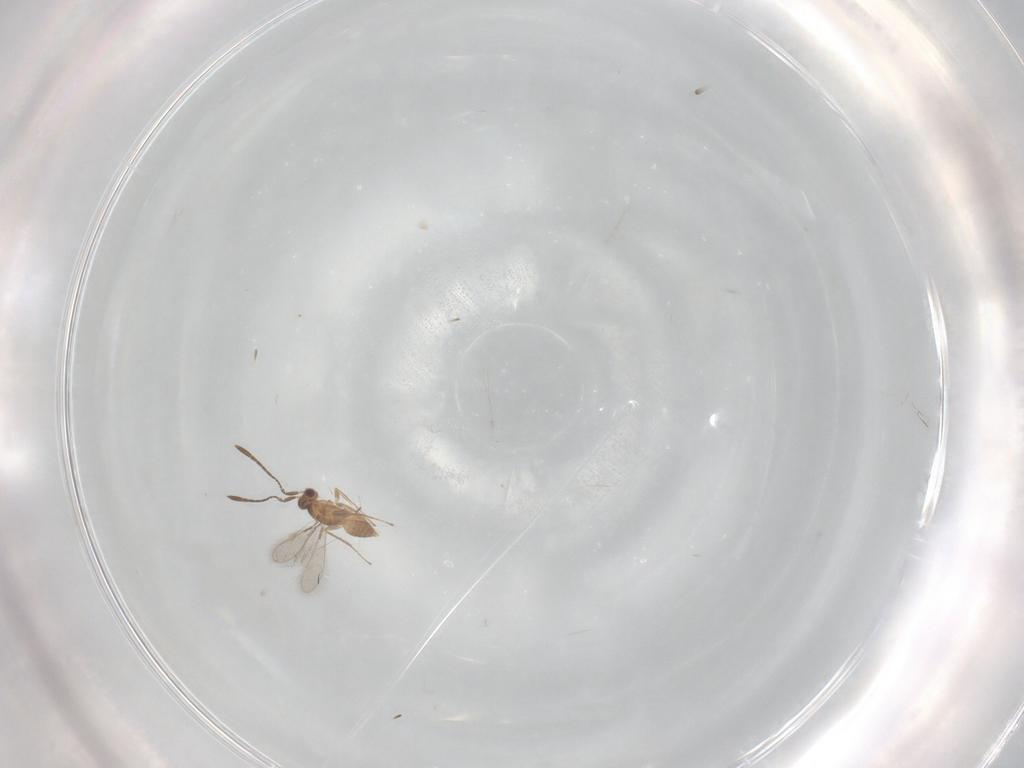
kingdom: Animalia
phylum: Arthropoda
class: Insecta
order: Hymenoptera
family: Mymaridae
